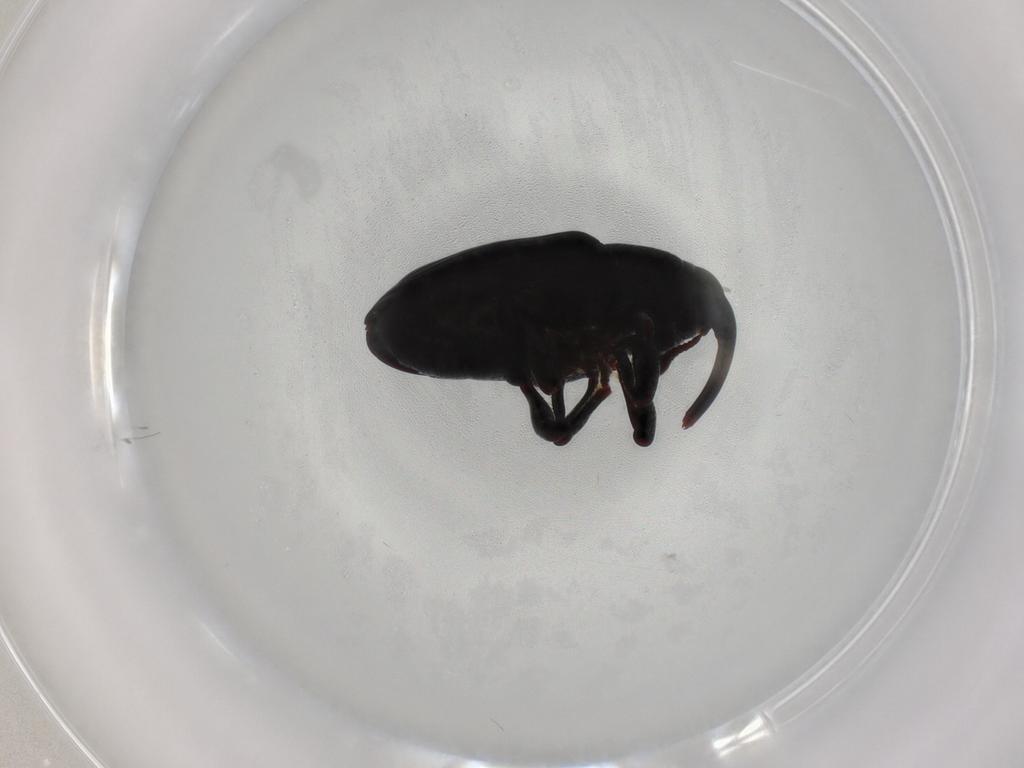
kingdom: Animalia
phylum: Arthropoda
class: Insecta
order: Coleoptera
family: Curculionidae
